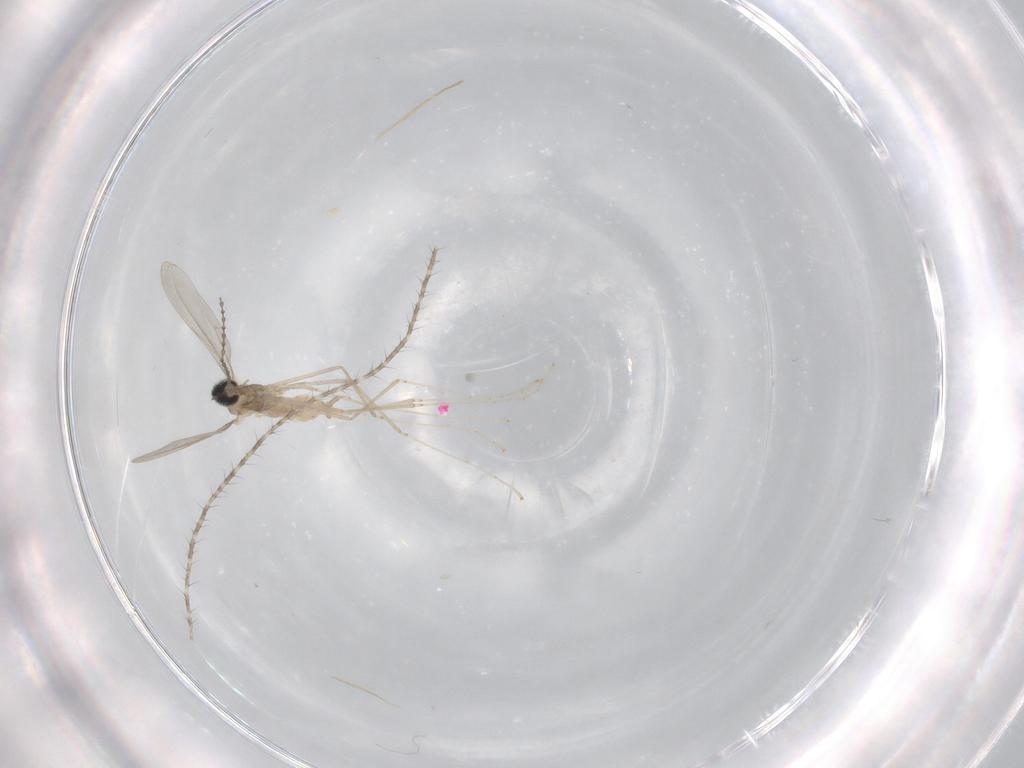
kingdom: Animalia
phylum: Arthropoda
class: Insecta
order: Diptera
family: Cecidomyiidae
